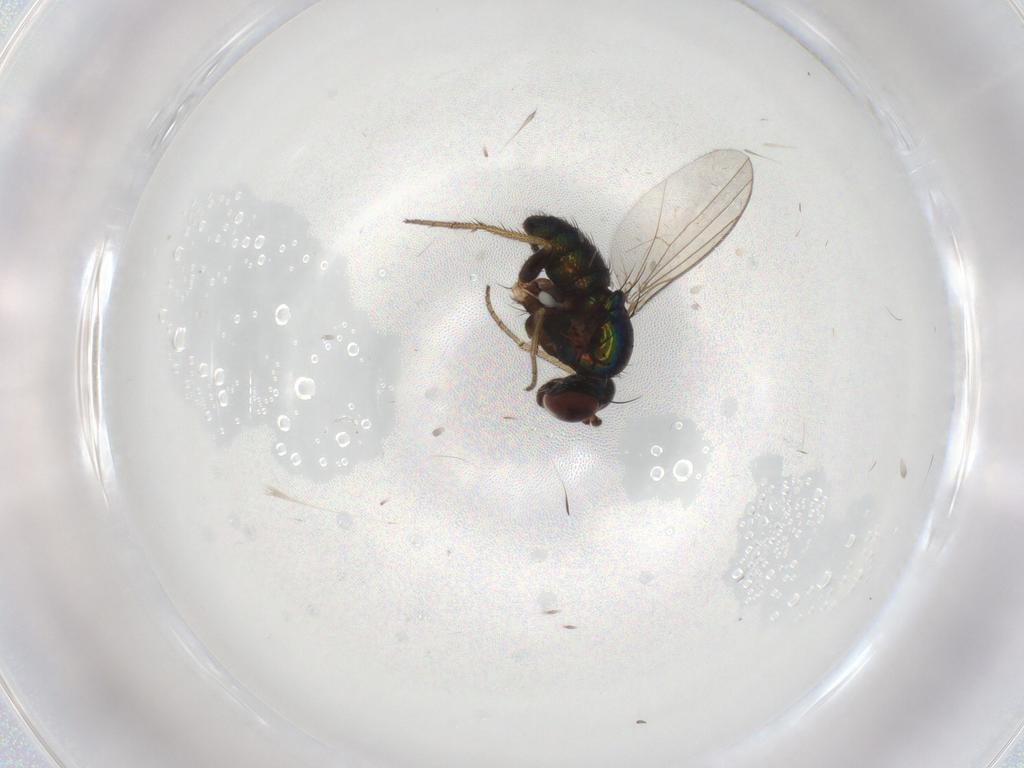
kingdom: Animalia
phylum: Arthropoda
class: Insecta
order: Diptera
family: Dolichopodidae
